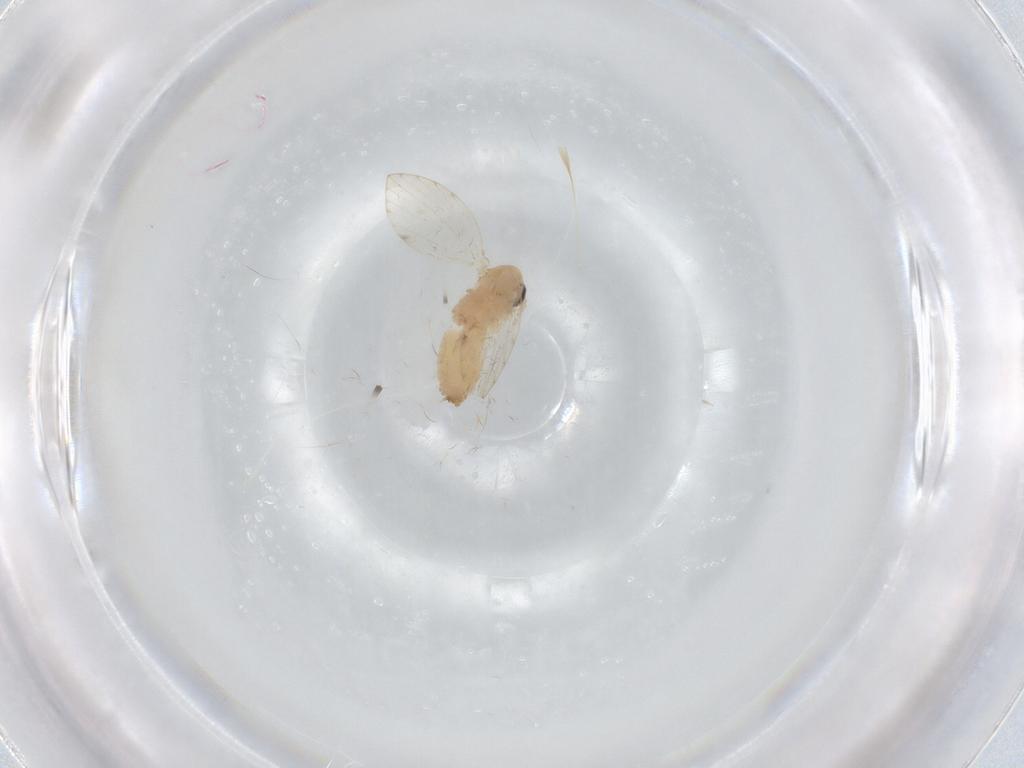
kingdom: Animalia
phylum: Arthropoda
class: Insecta
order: Diptera
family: Psychodidae
